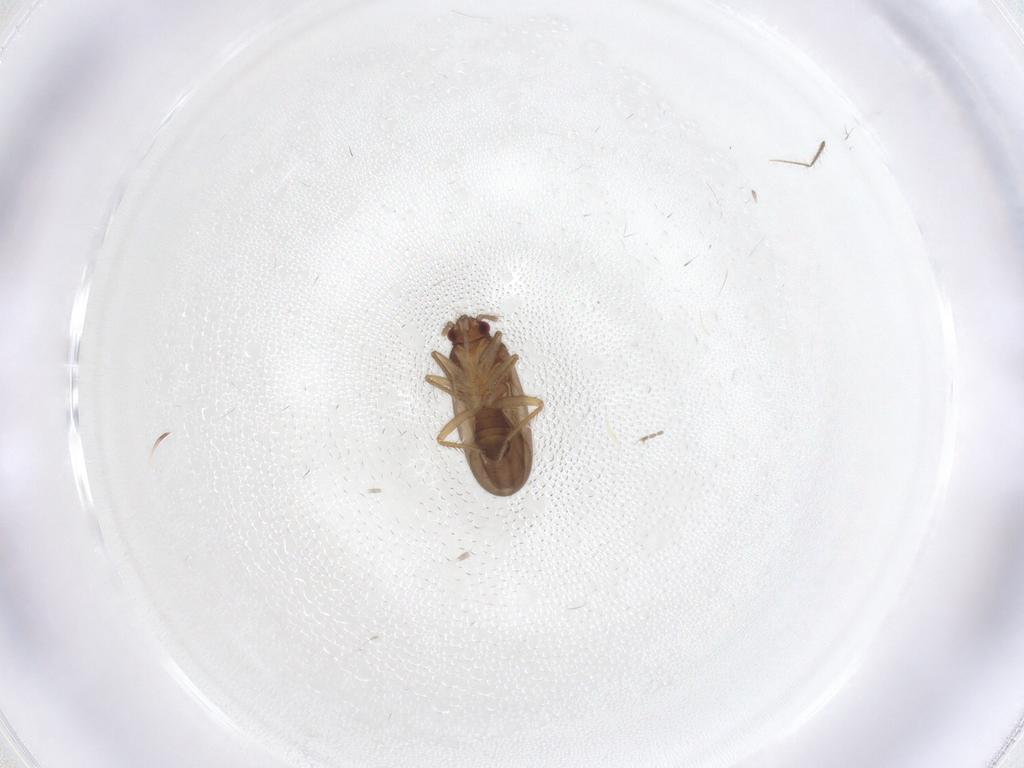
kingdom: Animalia
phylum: Arthropoda
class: Insecta
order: Hemiptera
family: Ceratocombidae
